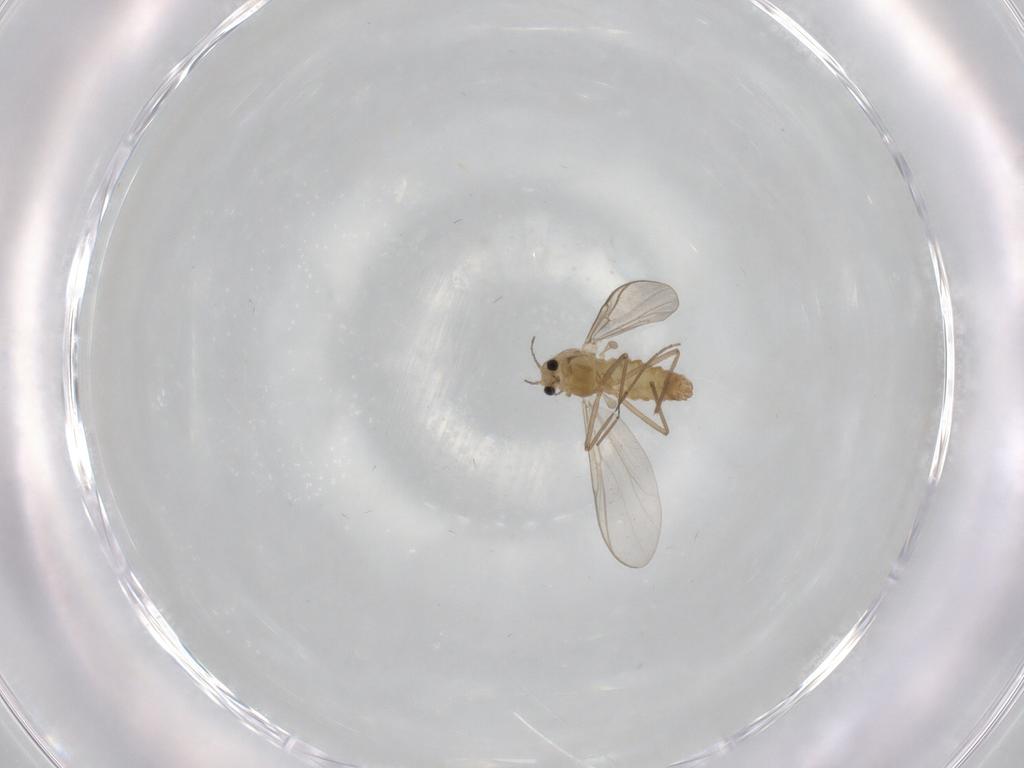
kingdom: Animalia
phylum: Arthropoda
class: Insecta
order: Diptera
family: Chironomidae
